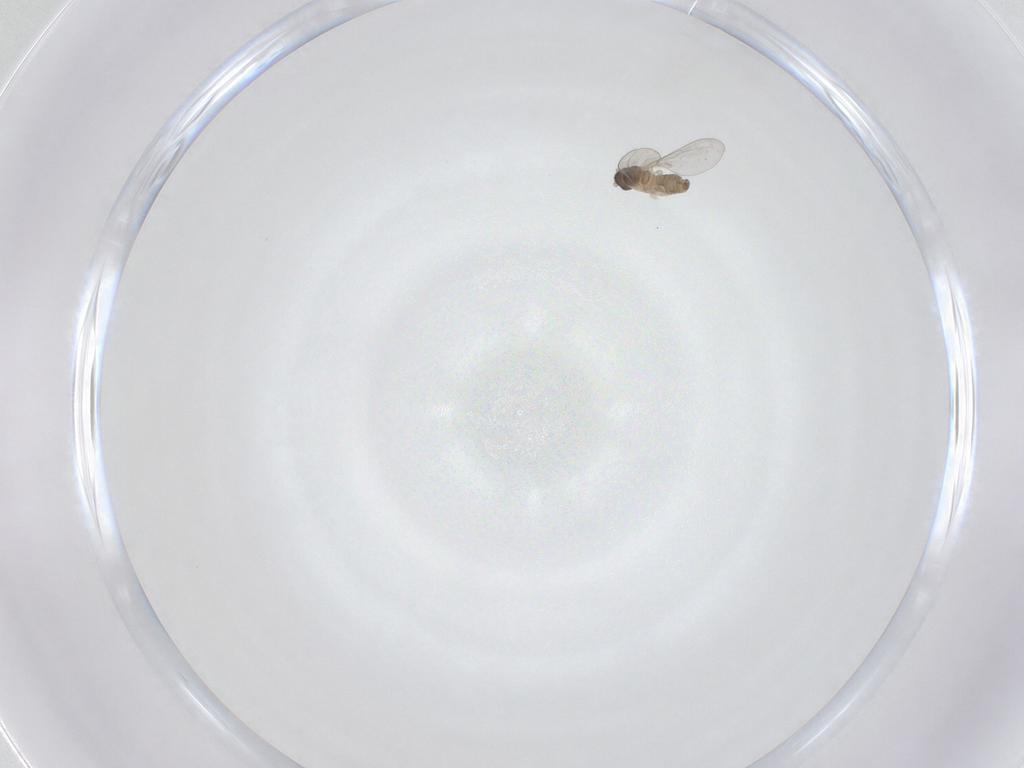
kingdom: Animalia
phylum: Arthropoda
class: Insecta
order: Diptera
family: Cecidomyiidae
